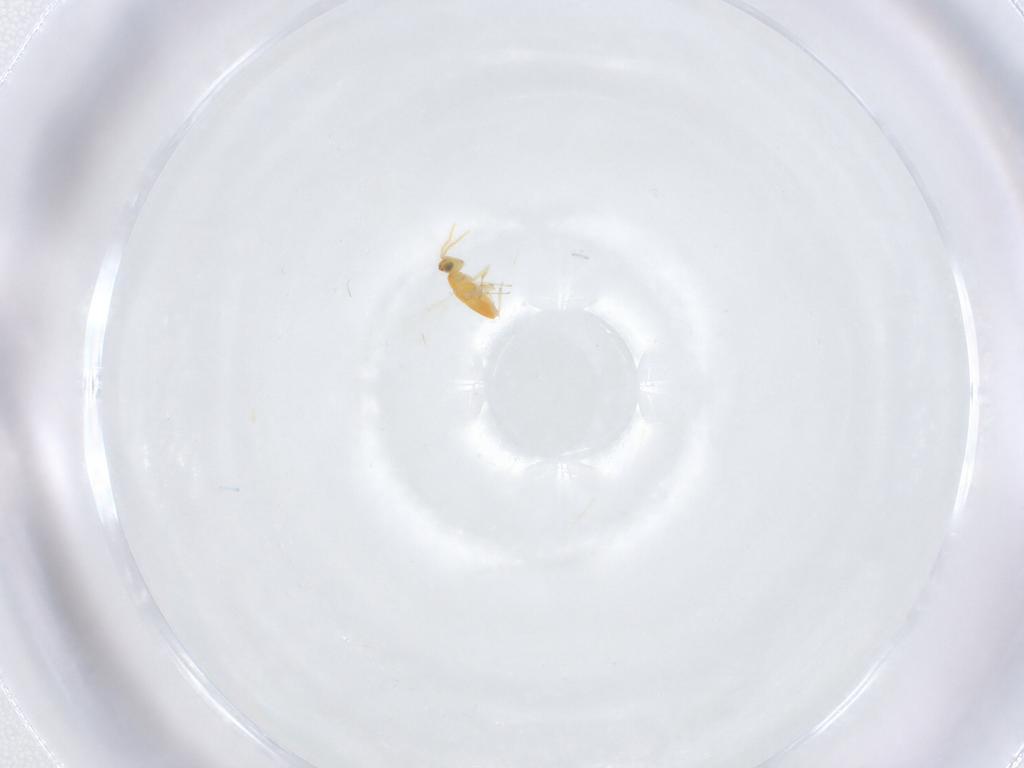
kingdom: Animalia
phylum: Arthropoda
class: Insecta
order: Hymenoptera
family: Aphelinidae
